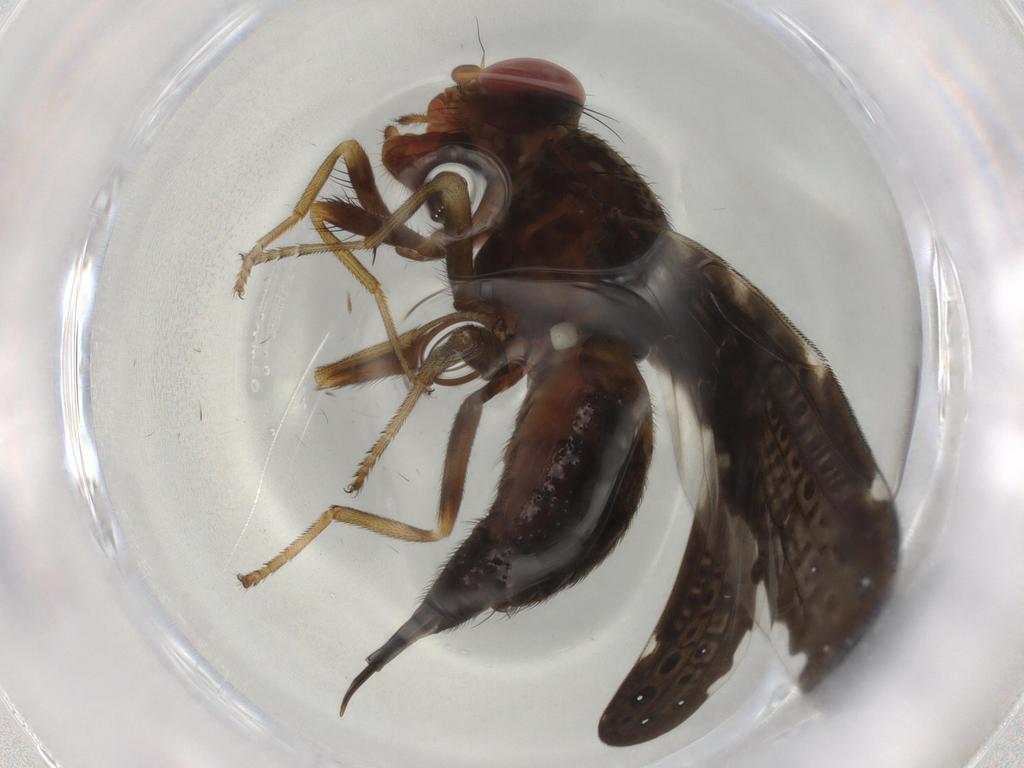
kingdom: Animalia
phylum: Arthropoda
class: Insecta
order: Diptera
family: Ulidiidae
